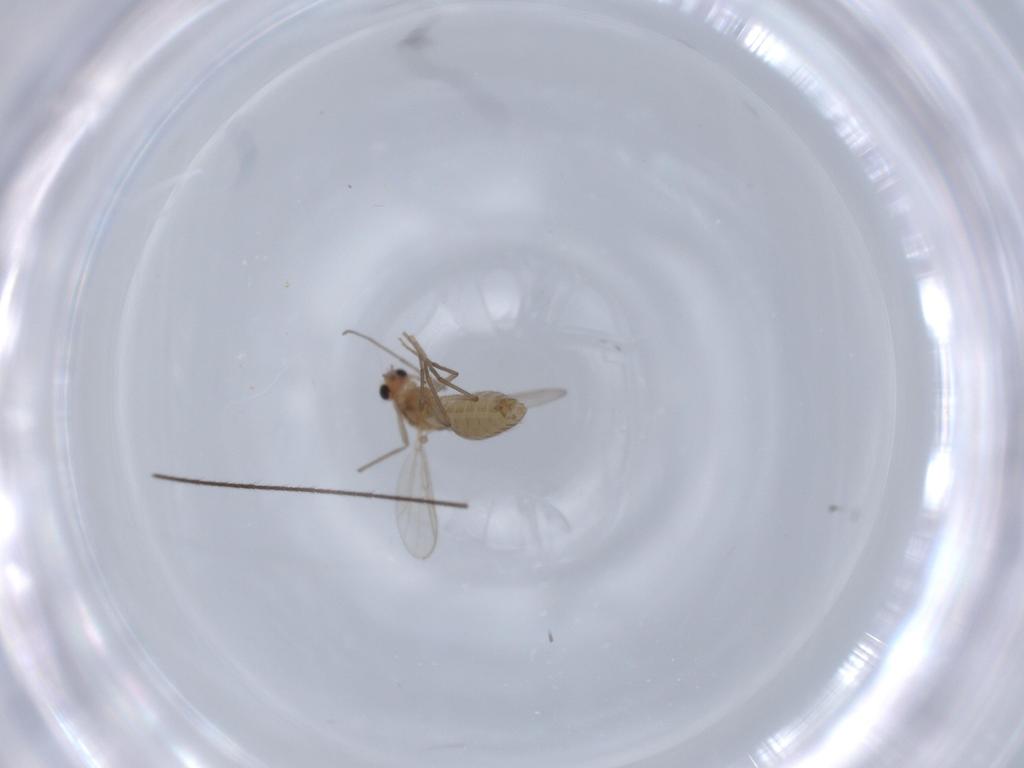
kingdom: Animalia
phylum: Arthropoda
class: Insecta
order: Diptera
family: Chironomidae
